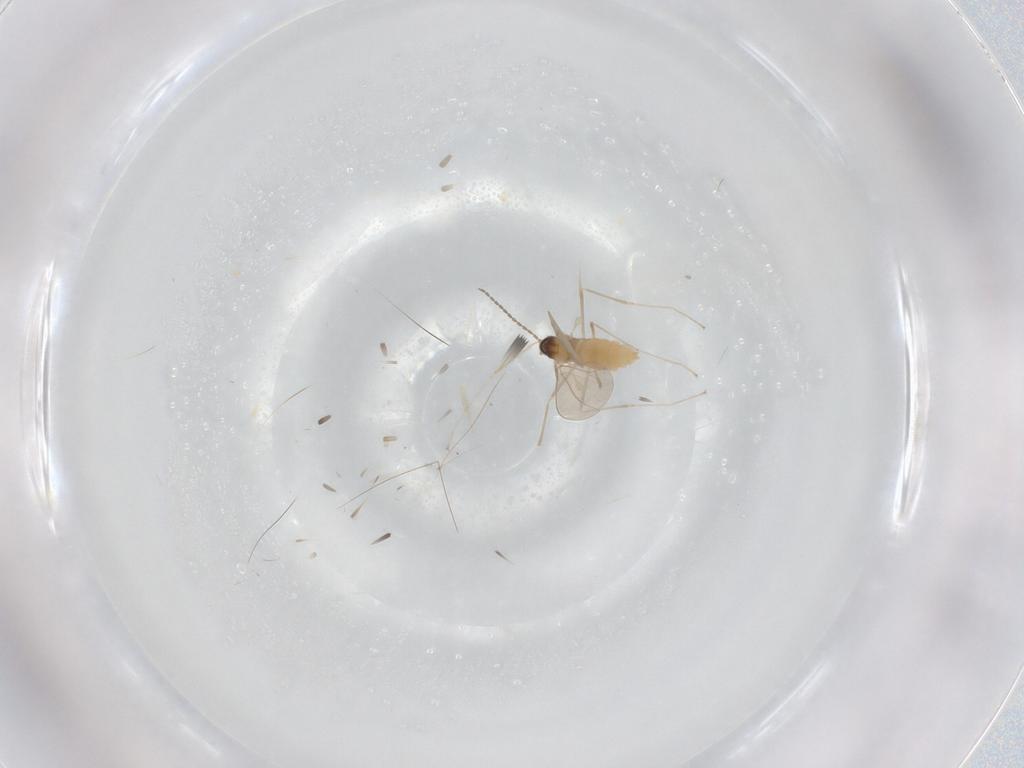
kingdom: Animalia
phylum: Arthropoda
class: Insecta
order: Diptera
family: Cecidomyiidae
